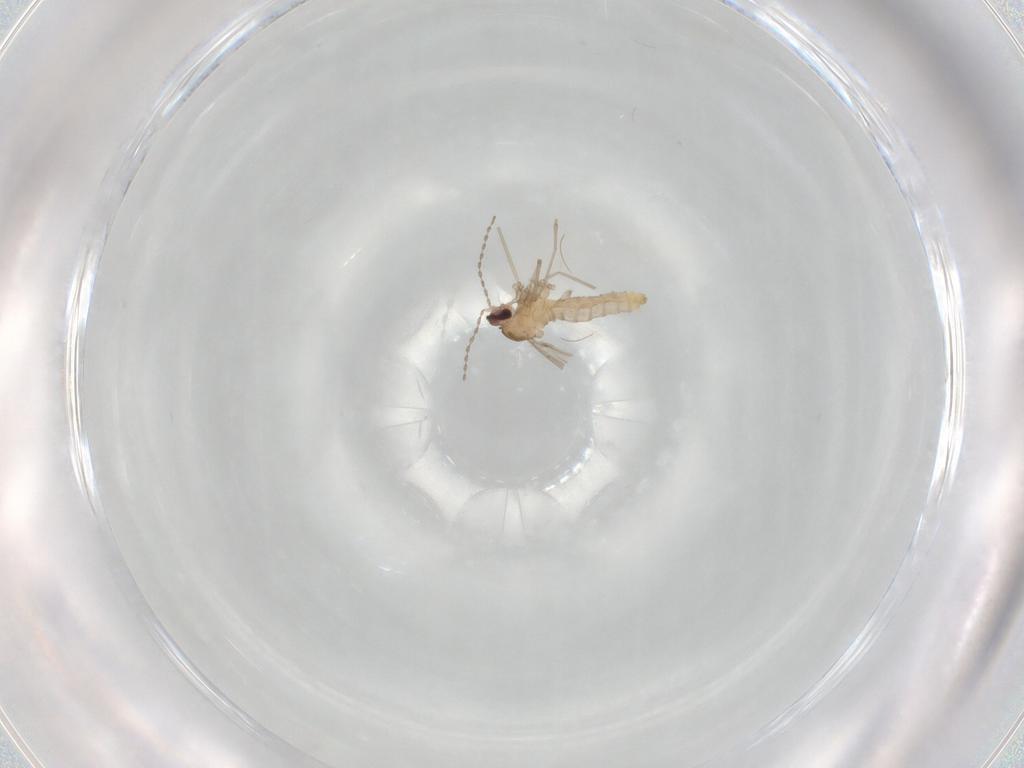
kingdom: Animalia
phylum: Arthropoda
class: Insecta
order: Diptera
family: Cecidomyiidae
